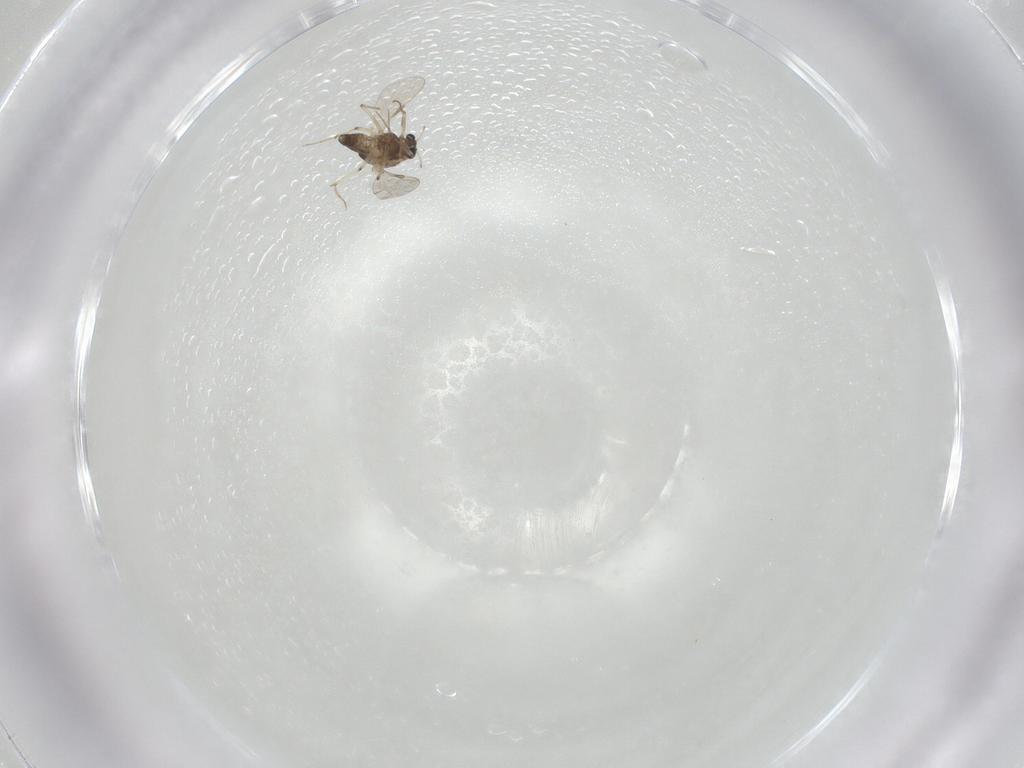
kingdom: Animalia
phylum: Arthropoda
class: Insecta
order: Diptera
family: Chironomidae
